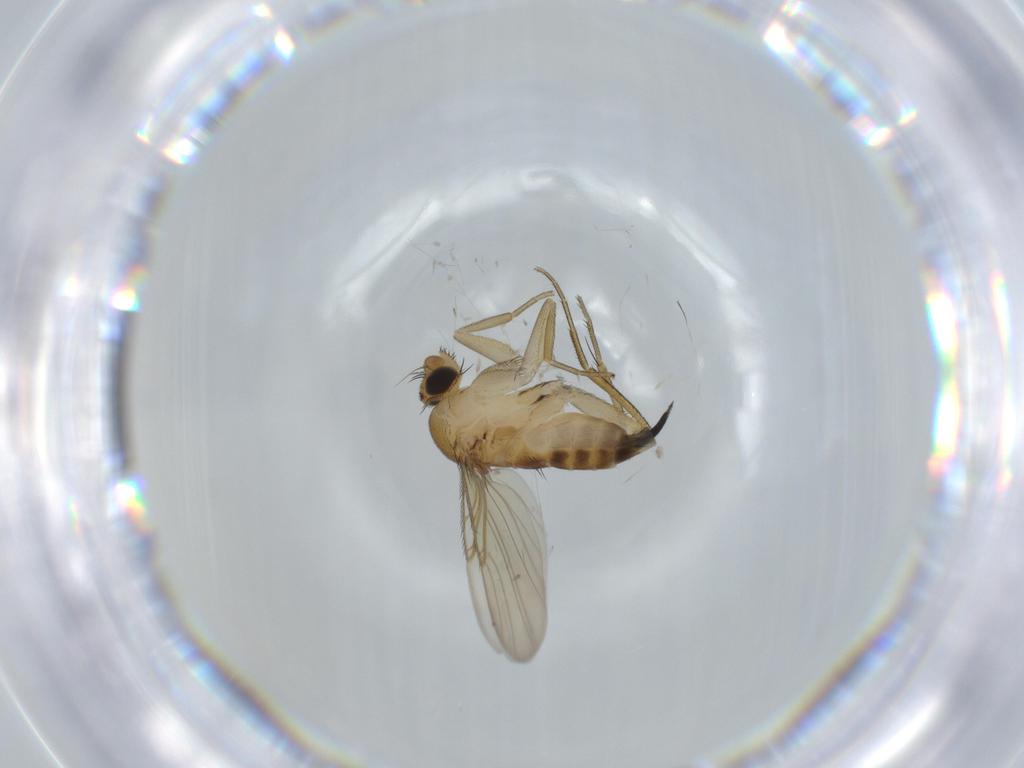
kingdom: Animalia
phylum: Arthropoda
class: Insecta
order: Diptera
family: Phoridae
